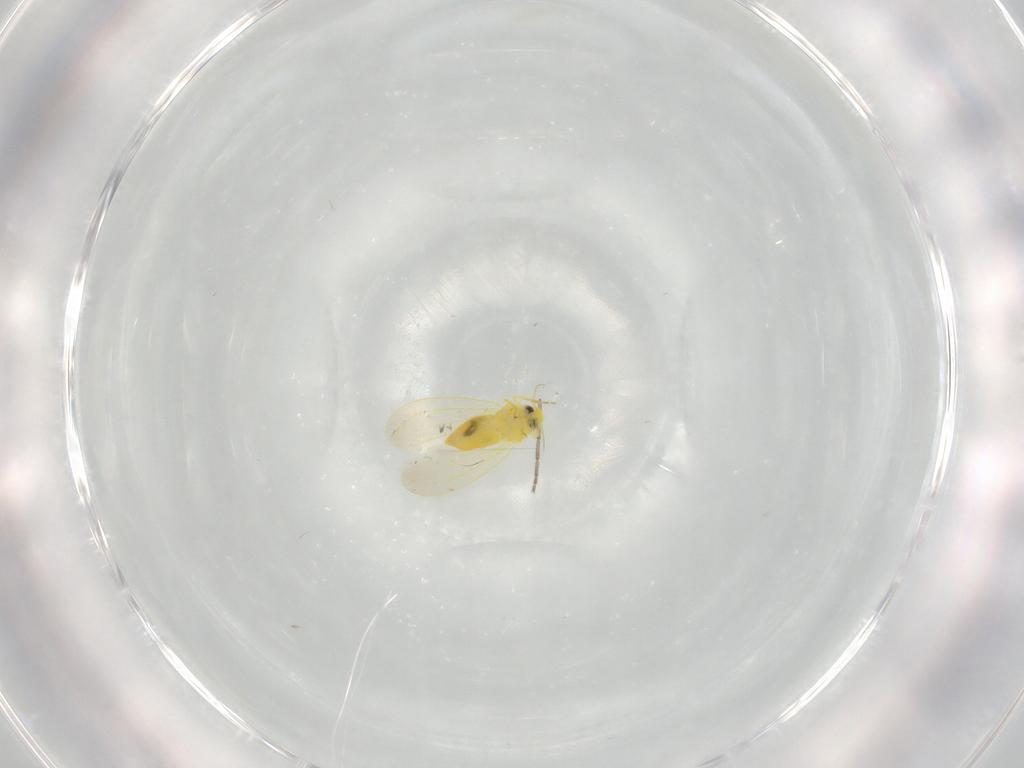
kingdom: Animalia
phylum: Arthropoda
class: Insecta
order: Hemiptera
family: Aleyrodidae
